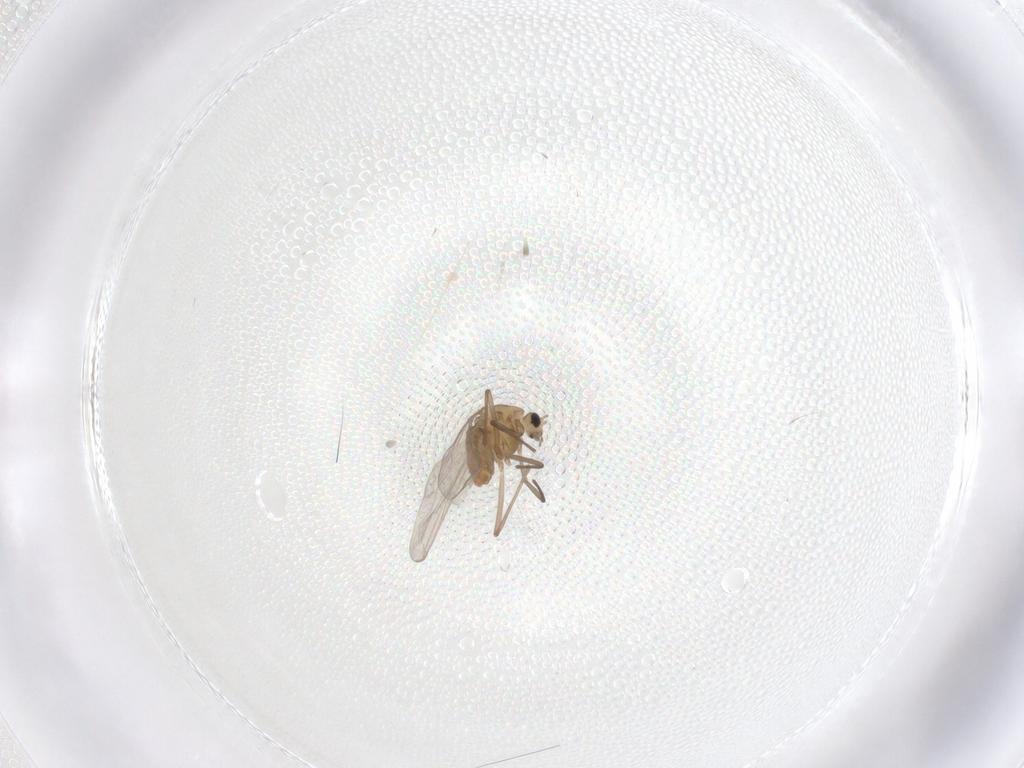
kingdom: Animalia
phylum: Arthropoda
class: Insecta
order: Diptera
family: Chironomidae
